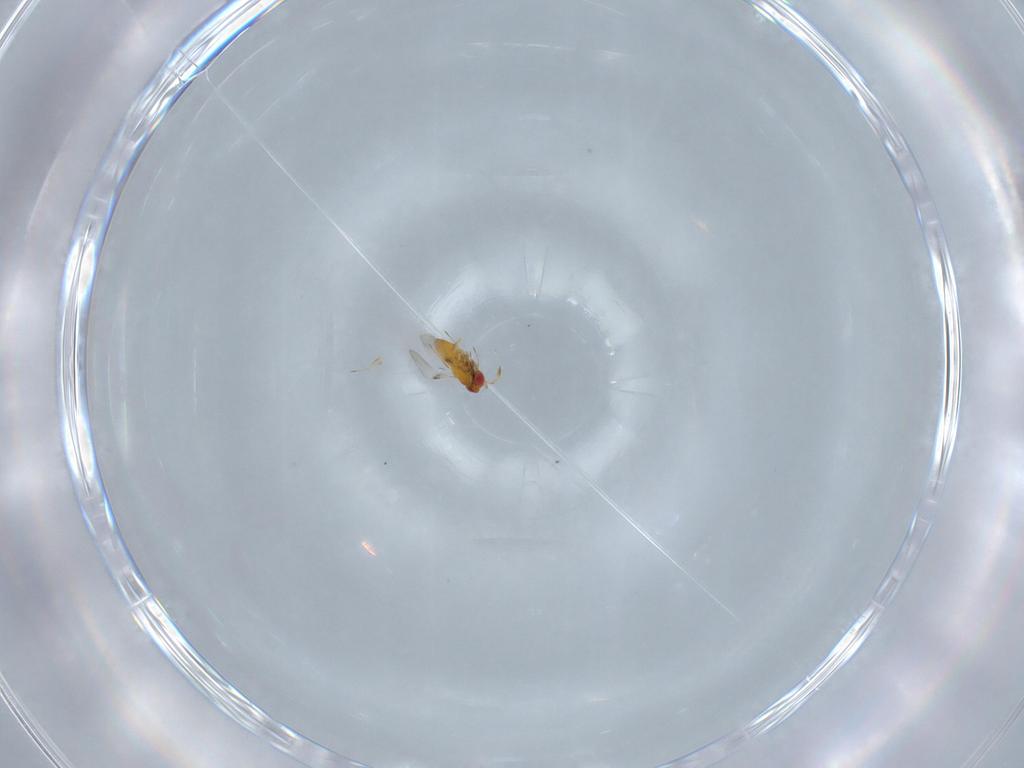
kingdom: Animalia
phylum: Arthropoda
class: Insecta
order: Hymenoptera
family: Trichogrammatidae
